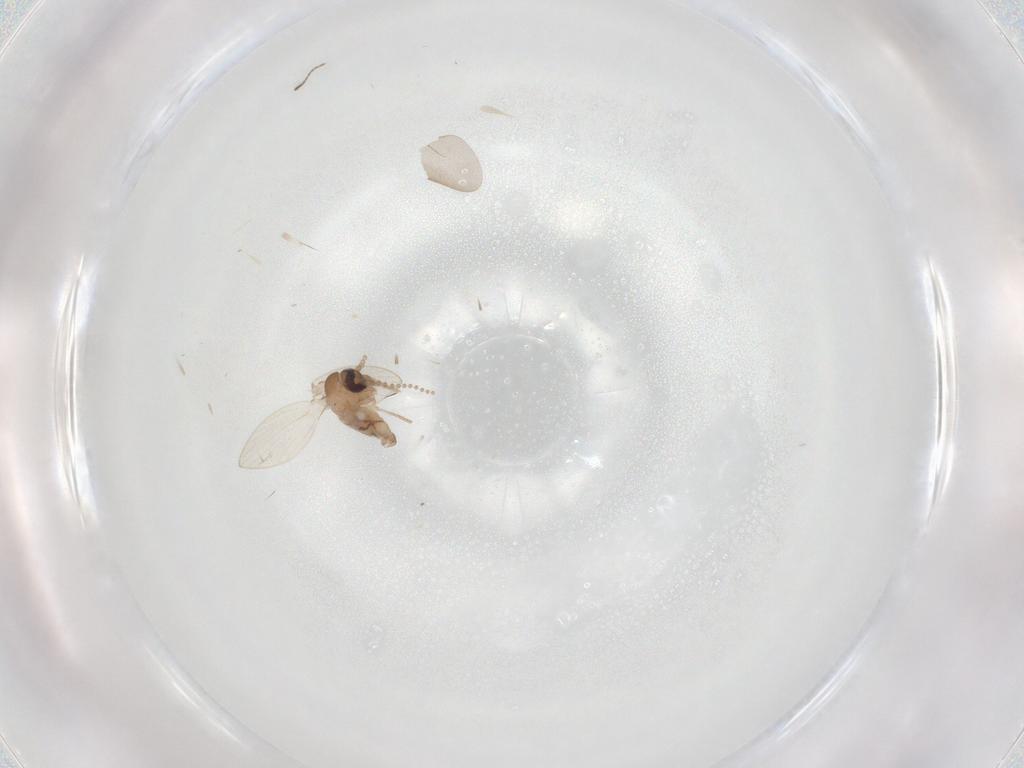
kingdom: Animalia
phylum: Arthropoda
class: Insecta
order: Diptera
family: Psychodidae
